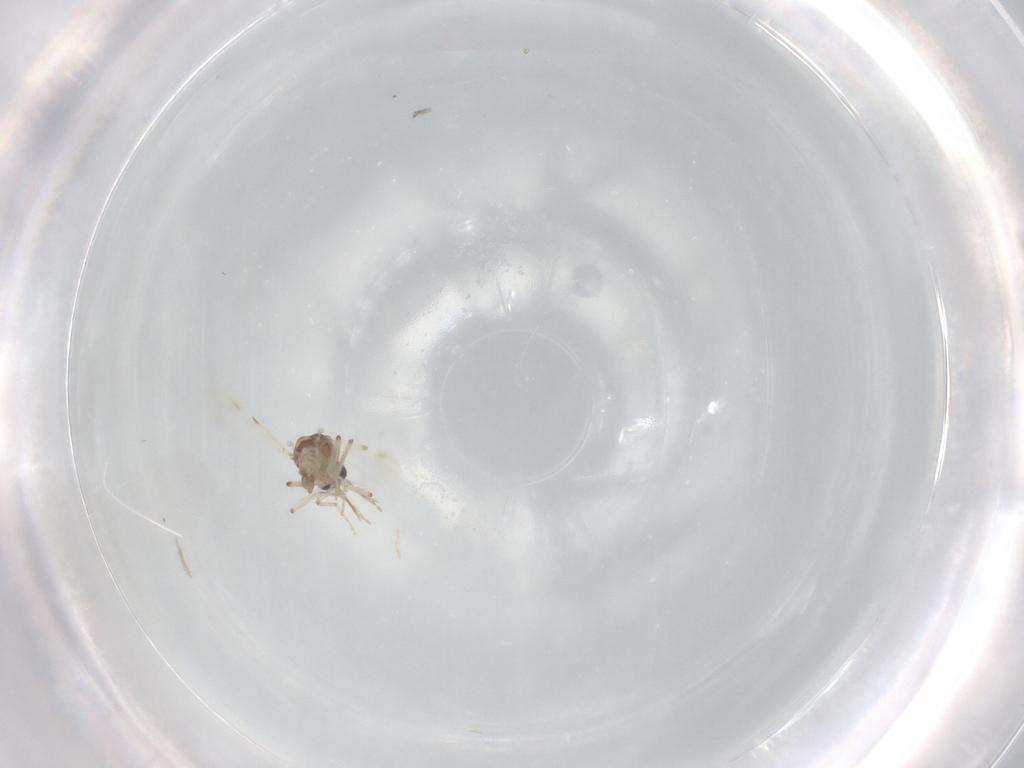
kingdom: Animalia
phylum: Arthropoda
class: Insecta
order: Diptera
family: Ceratopogonidae
